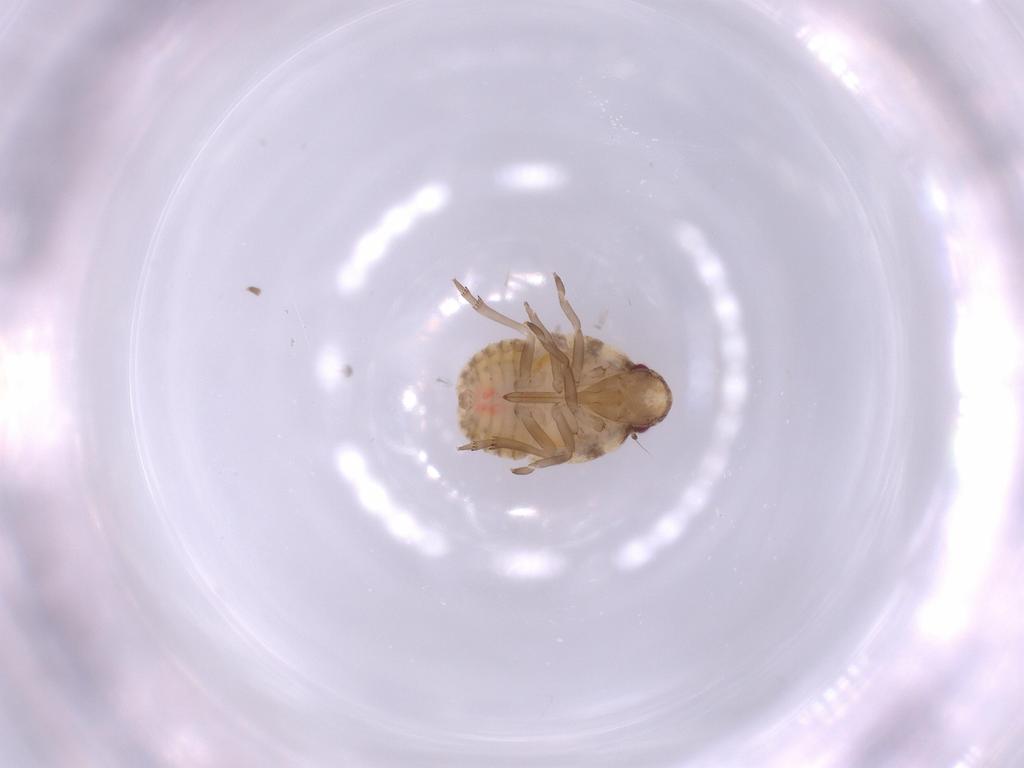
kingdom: Animalia
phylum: Arthropoda
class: Insecta
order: Hemiptera
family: Flatidae
